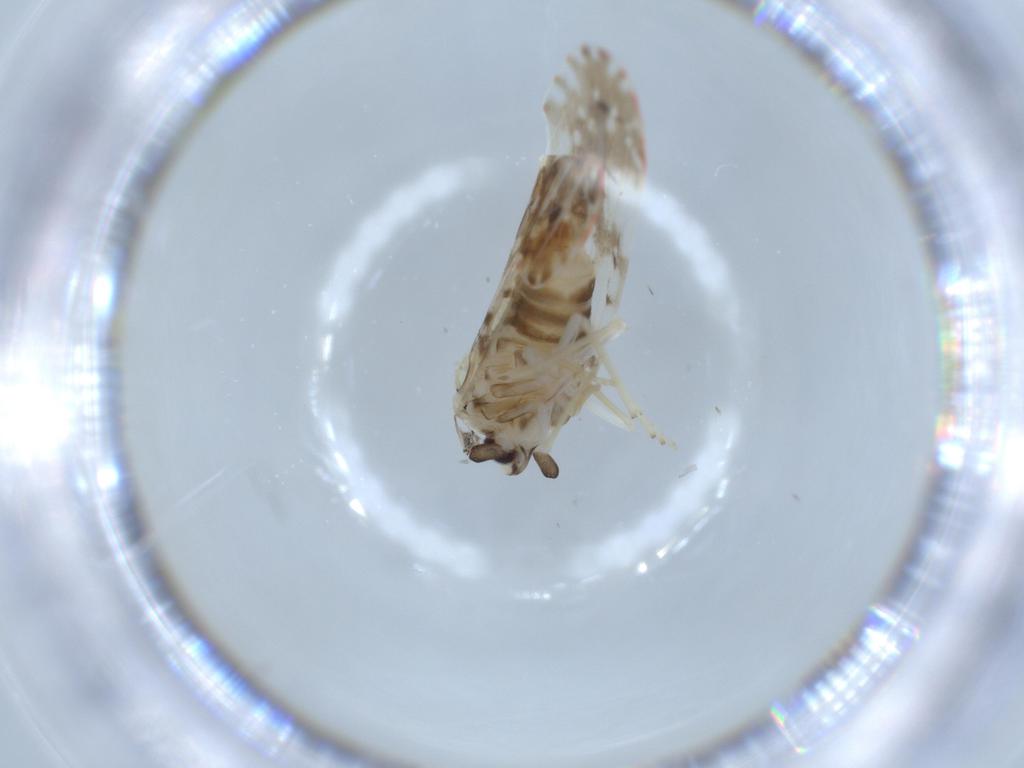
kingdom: Animalia
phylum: Arthropoda
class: Insecta
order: Hemiptera
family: Derbidae
